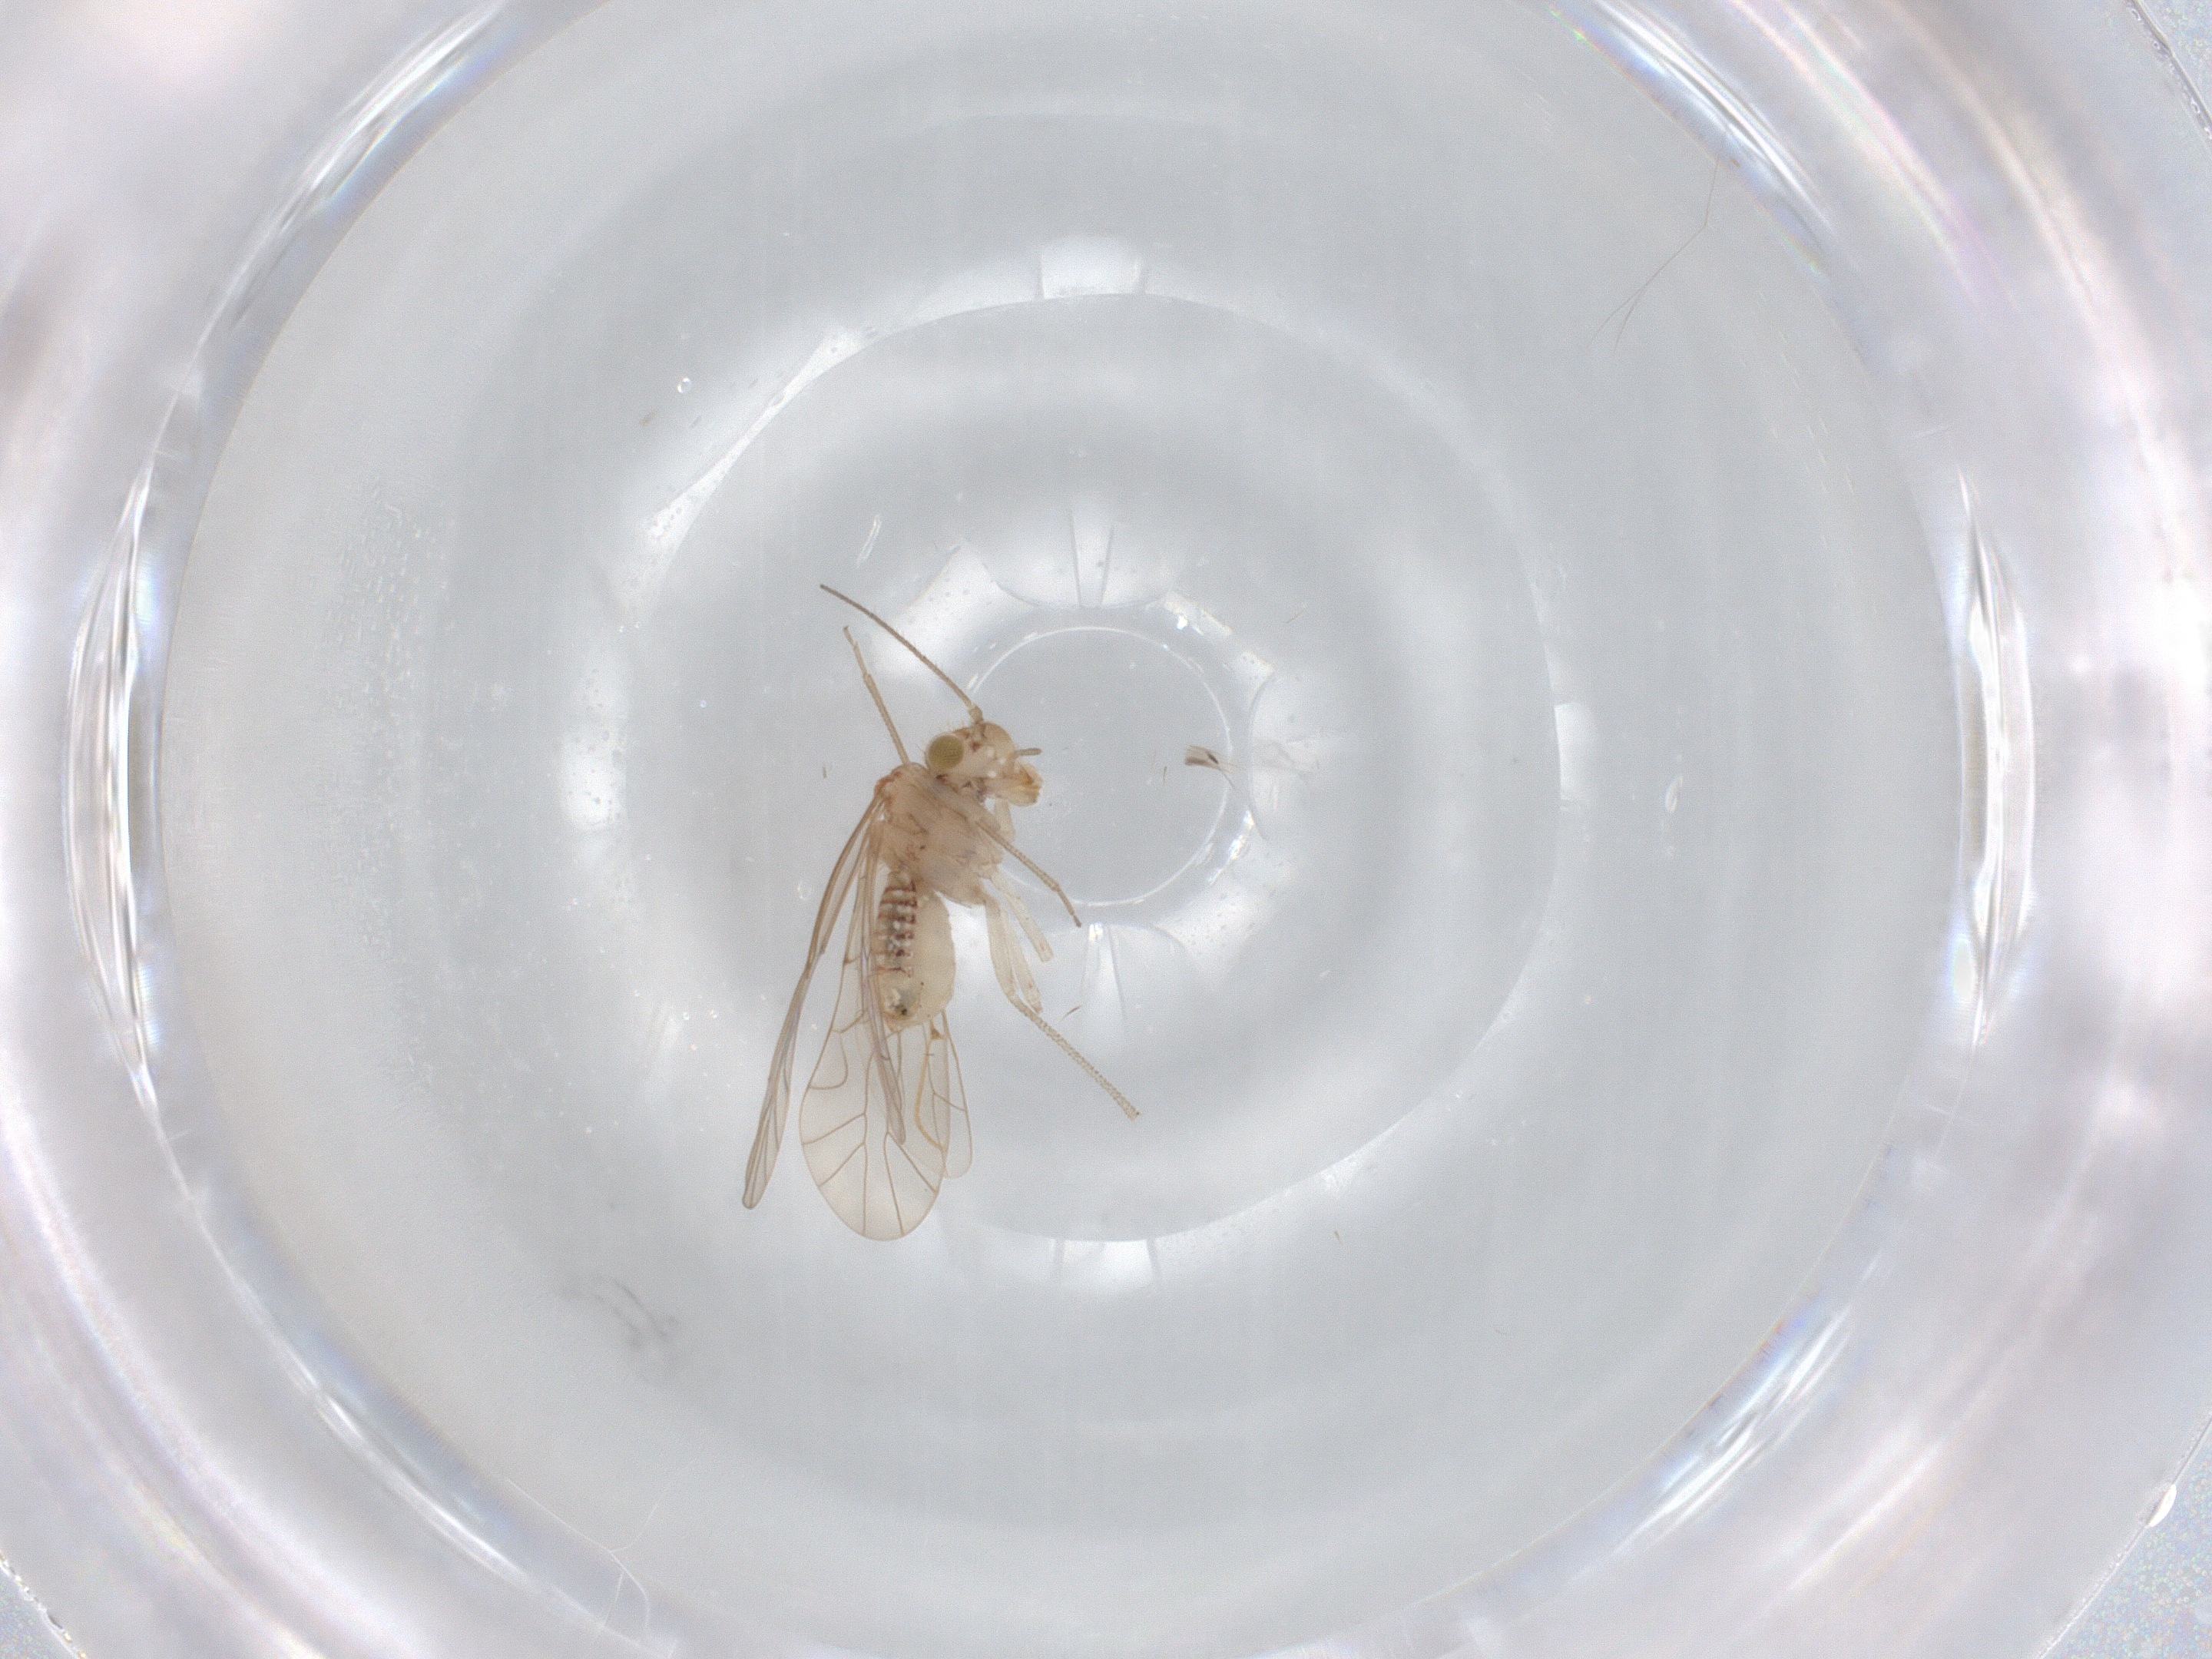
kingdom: Animalia
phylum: Arthropoda
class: Insecta
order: Psocodea
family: Lachesillidae
